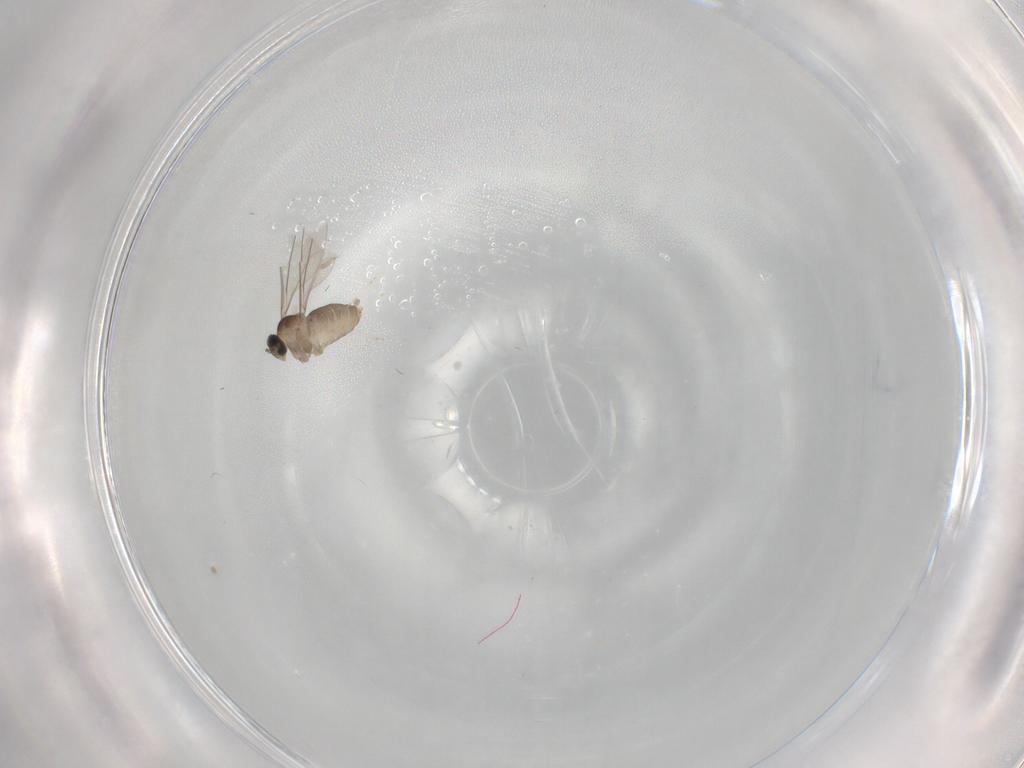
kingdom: Animalia
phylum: Arthropoda
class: Insecta
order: Diptera
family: Cecidomyiidae
